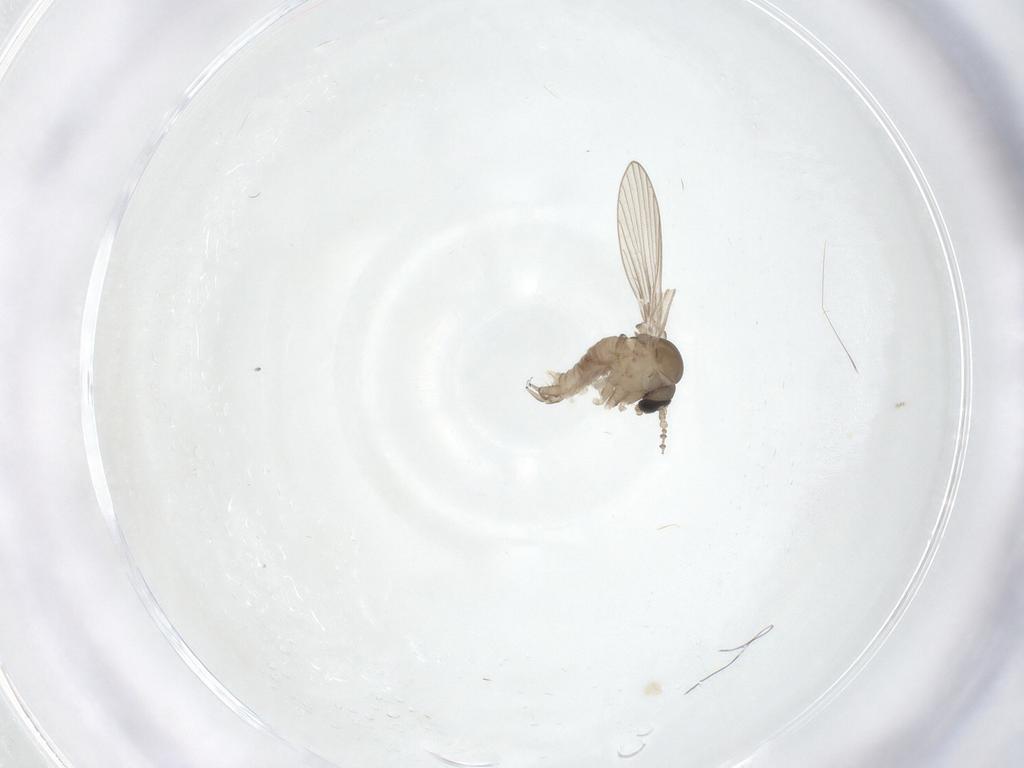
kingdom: Animalia
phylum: Arthropoda
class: Insecta
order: Diptera
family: Psychodidae
